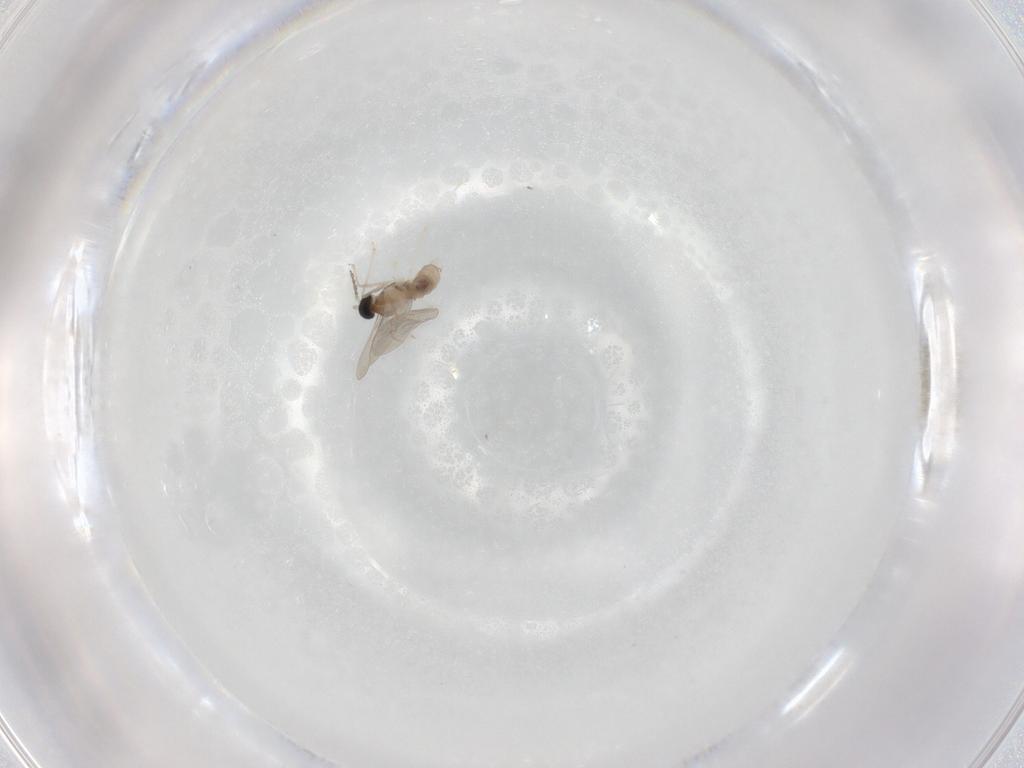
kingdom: Animalia
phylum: Arthropoda
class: Insecta
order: Diptera
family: Cecidomyiidae
